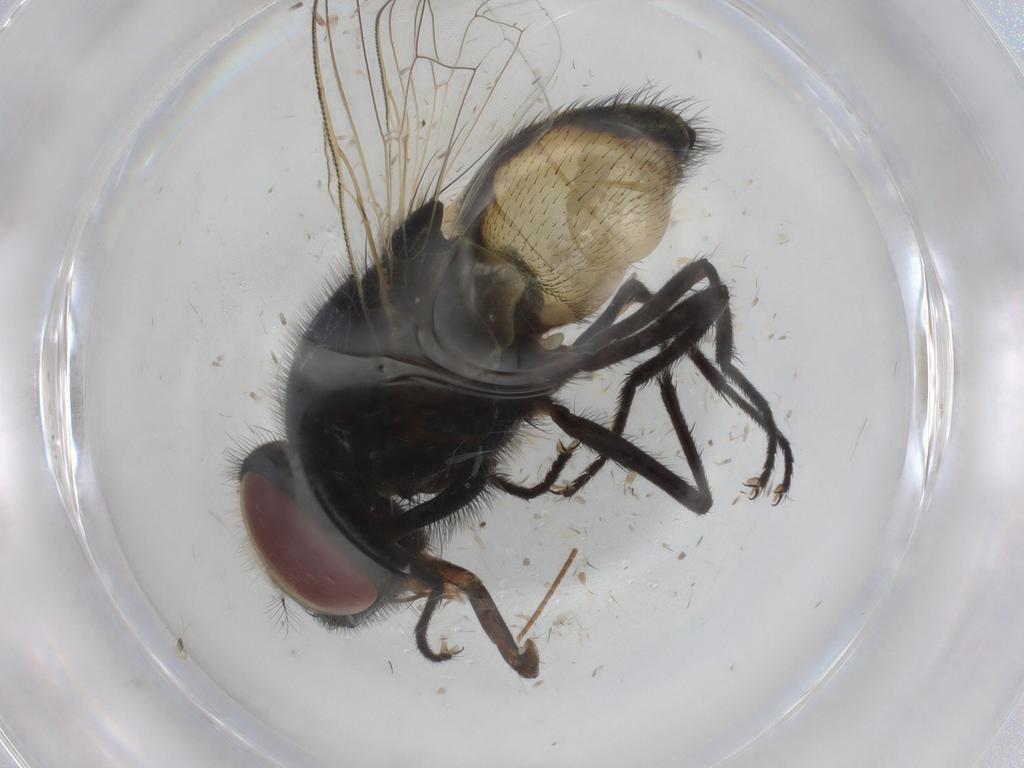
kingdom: Animalia
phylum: Arthropoda
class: Insecta
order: Diptera
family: Muscidae
